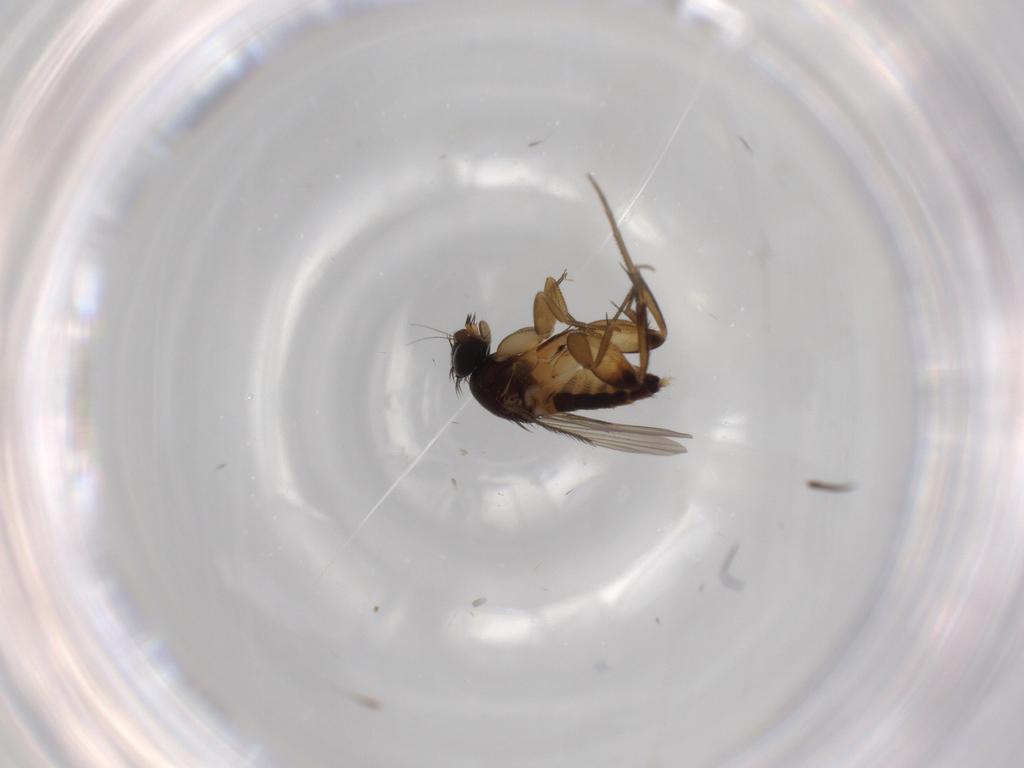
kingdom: Animalia
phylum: Arthropoda
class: Insecta
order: Diptera
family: Phoridae
